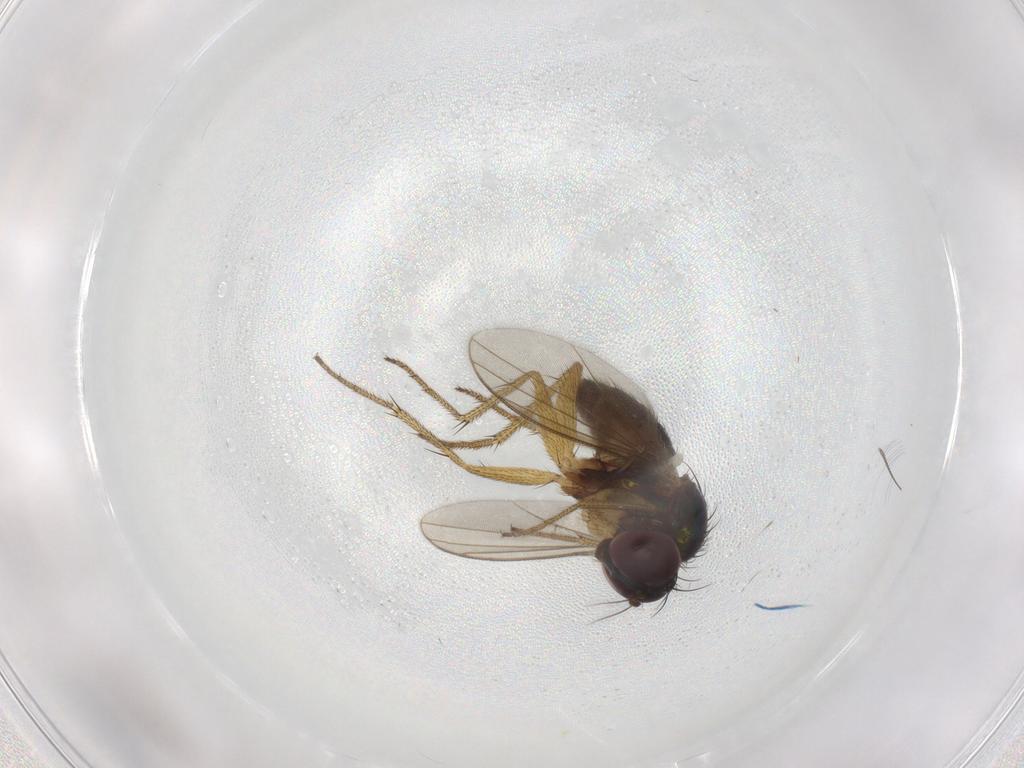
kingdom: Animalia
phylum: Arthropoda
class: Insecta
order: Diptera
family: Chironomidae
